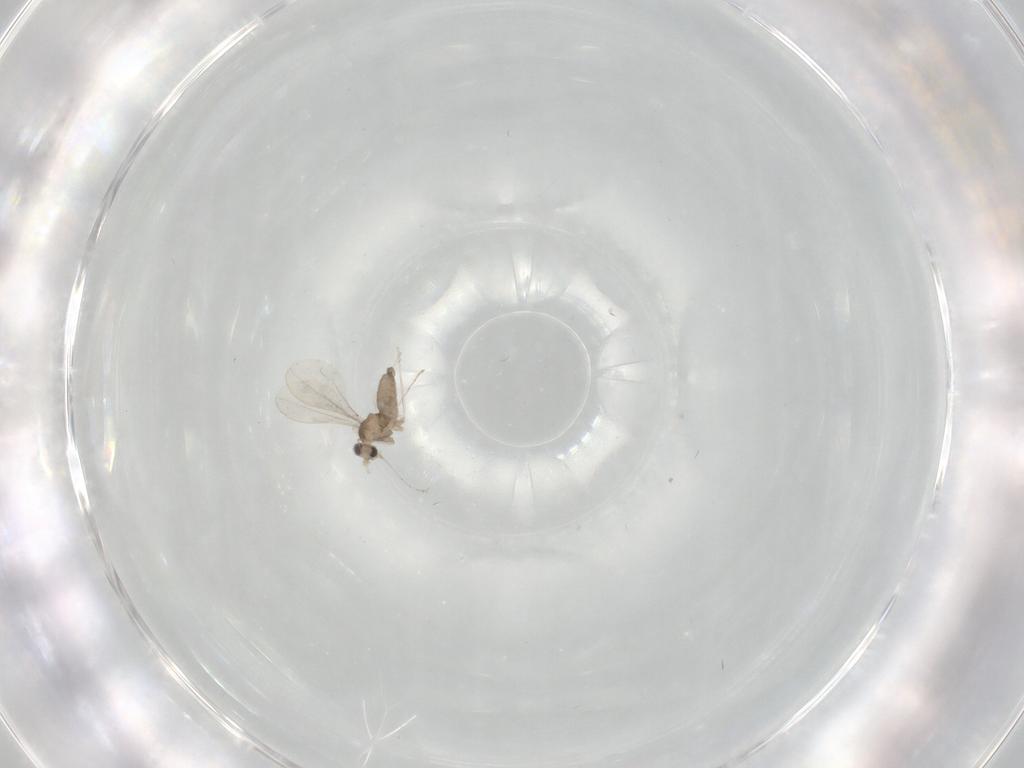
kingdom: Animalia
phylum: Arthropoda
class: Insecta
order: Diptera
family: Cecidomyiidae
